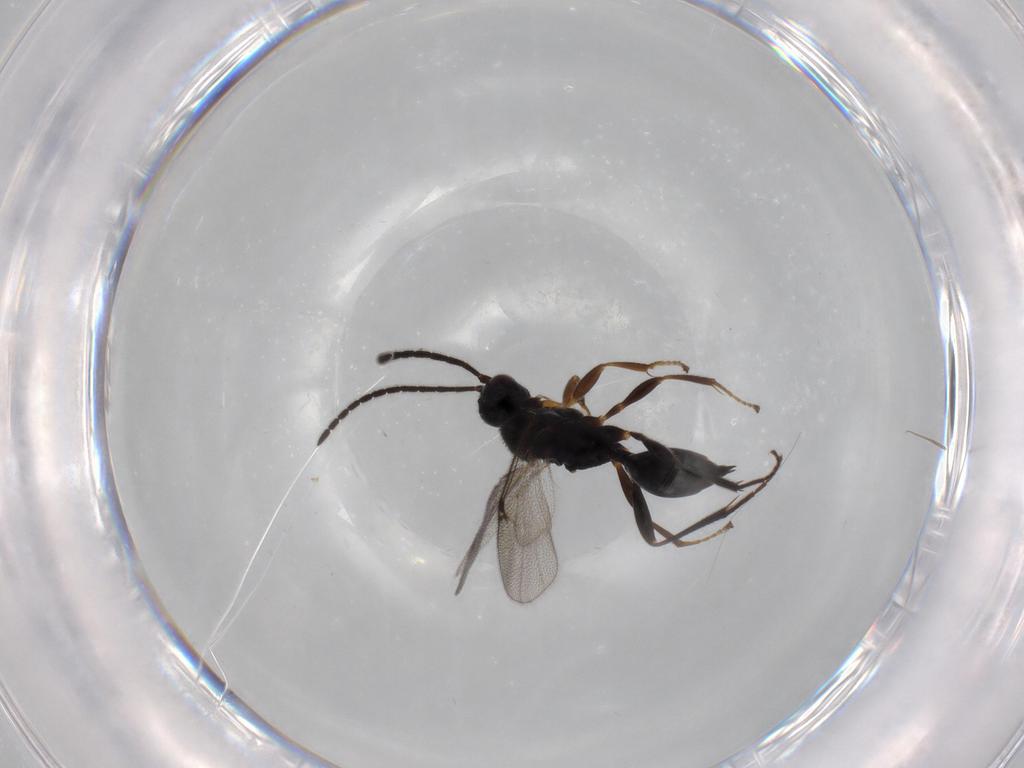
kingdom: Animalia
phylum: Arthropoda
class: Insecta
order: Hymenoptera
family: Proctotrupidae
